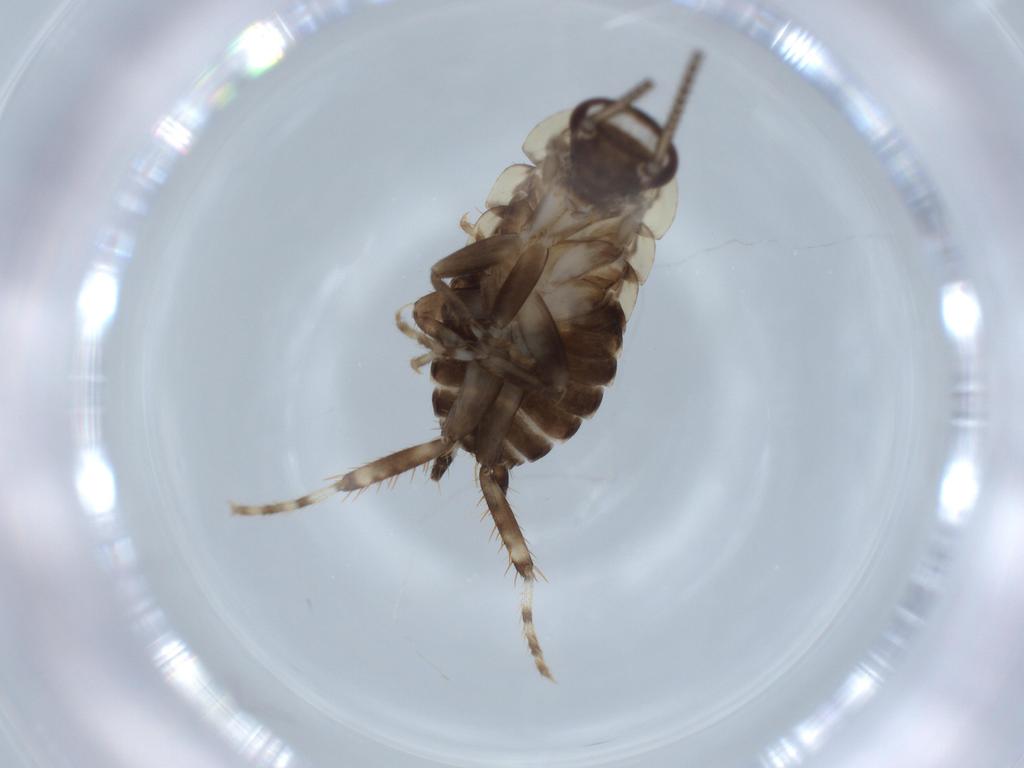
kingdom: Animalia
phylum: Arthropoda
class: Insecta
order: Blattodea
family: Ectobiidae
